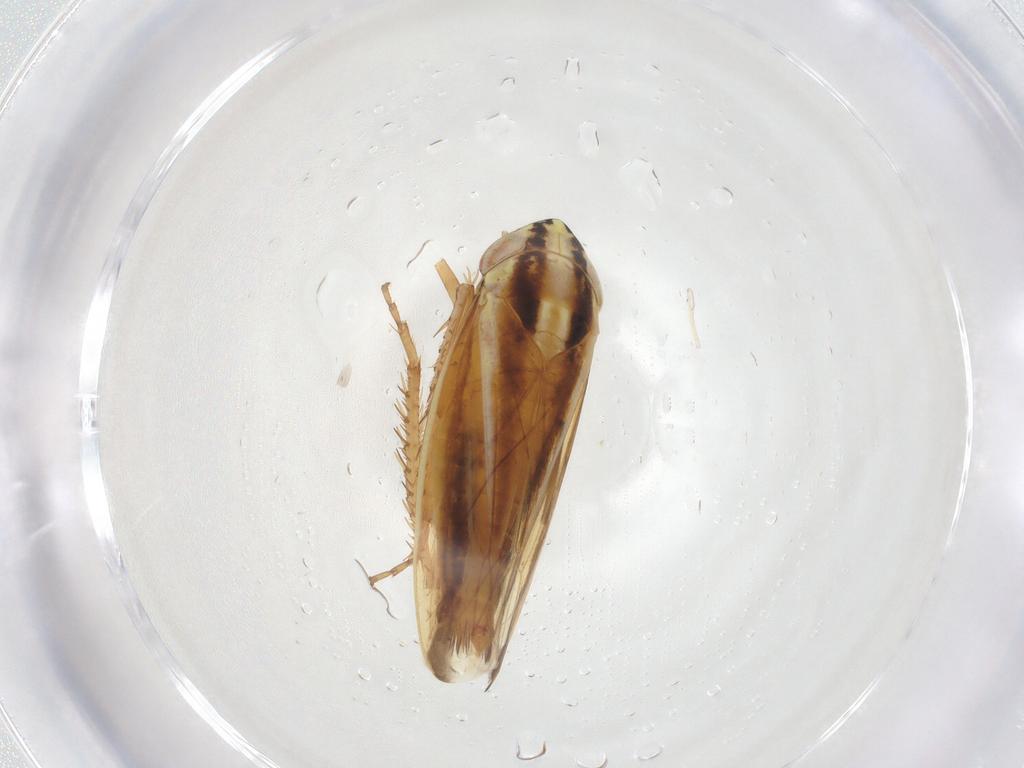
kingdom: Animalia
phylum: Arthropoda
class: Insecta
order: Hemiptera
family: Cicadellidae
